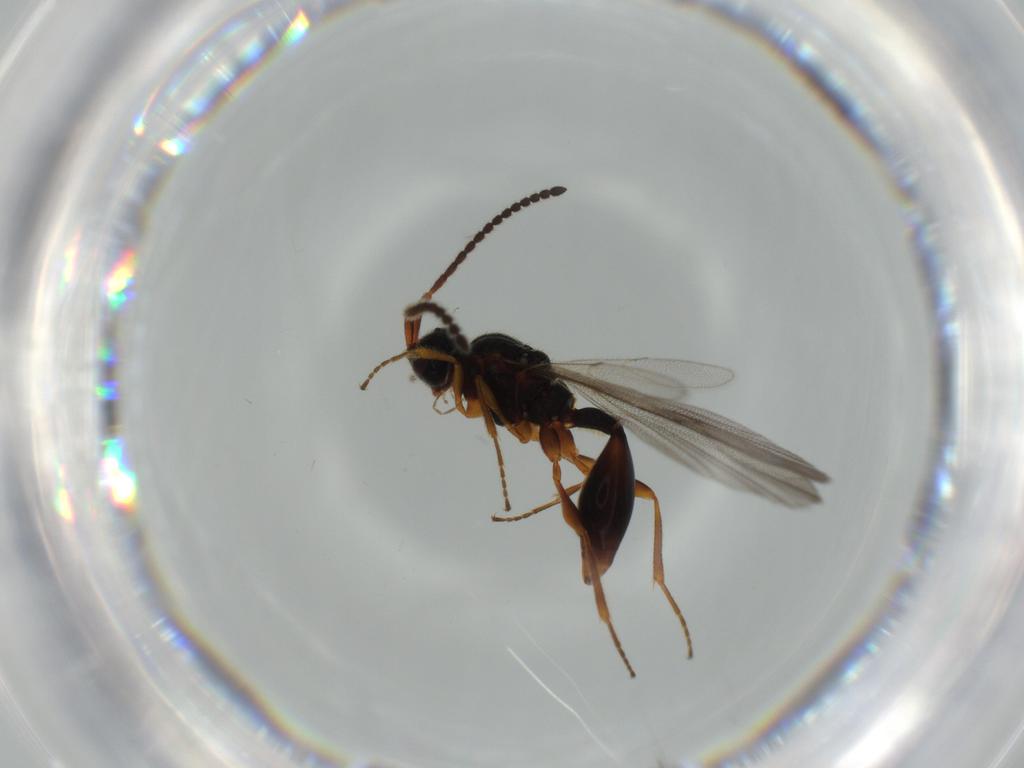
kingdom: Animalia
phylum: Arthropoda
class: Insecta
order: Hymenoptera
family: Diapriidae
